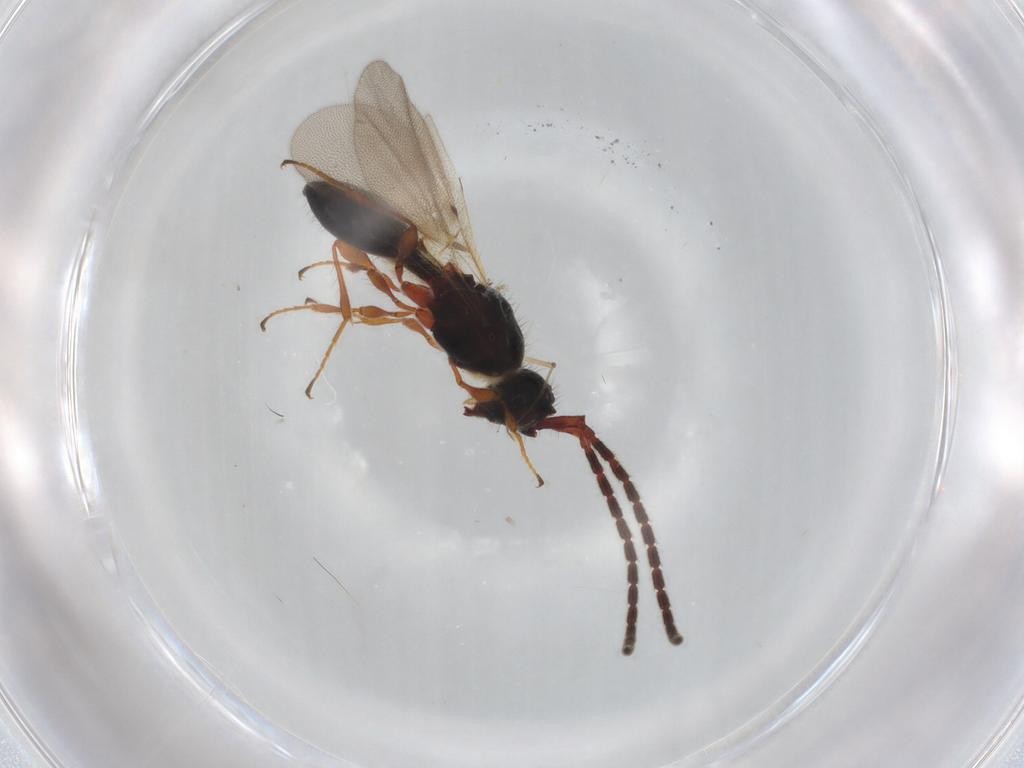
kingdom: Animalia
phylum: Arthropoda
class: Insecta
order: Hymenoptera
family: Diapriidae
